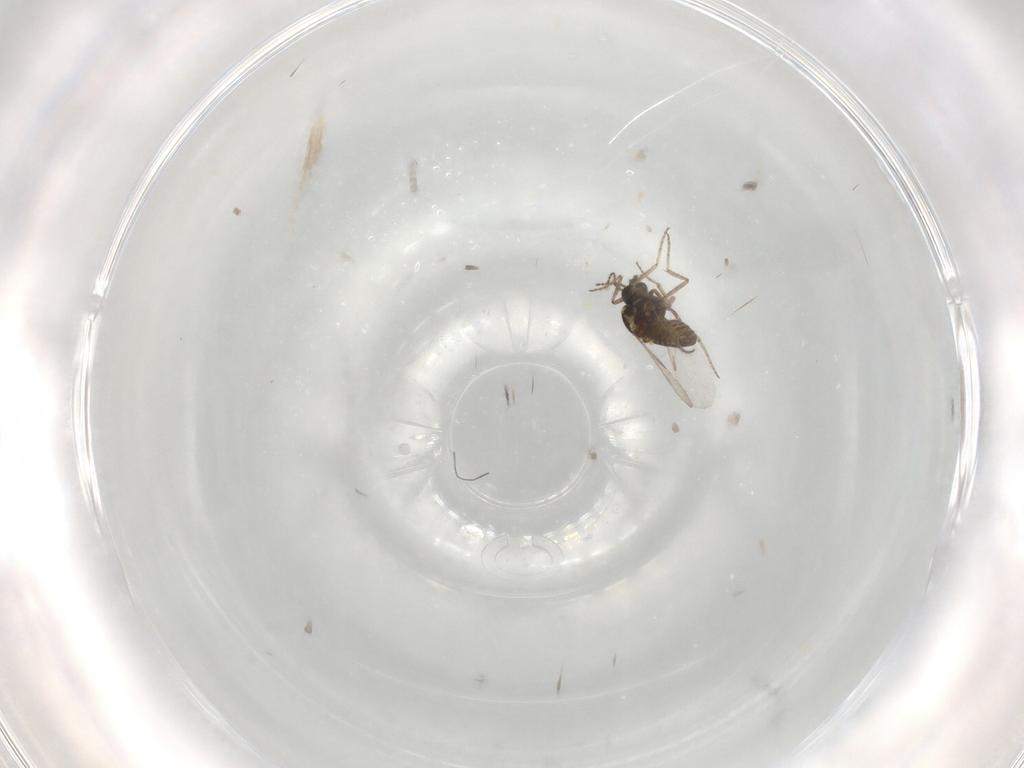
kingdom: Animalia
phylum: Arthropoda
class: Insecta
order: Diptera
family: Ceratopogonidae
